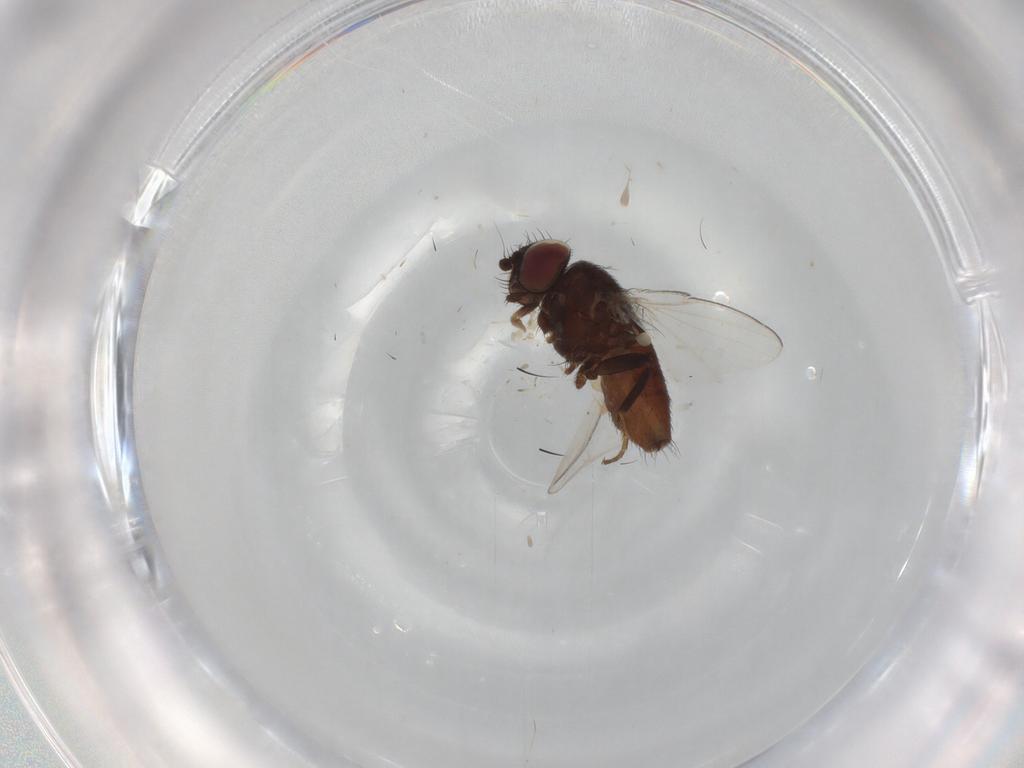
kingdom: Animalia
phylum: Arthropoda
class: Insecta
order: Diptera
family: Milichiidae
